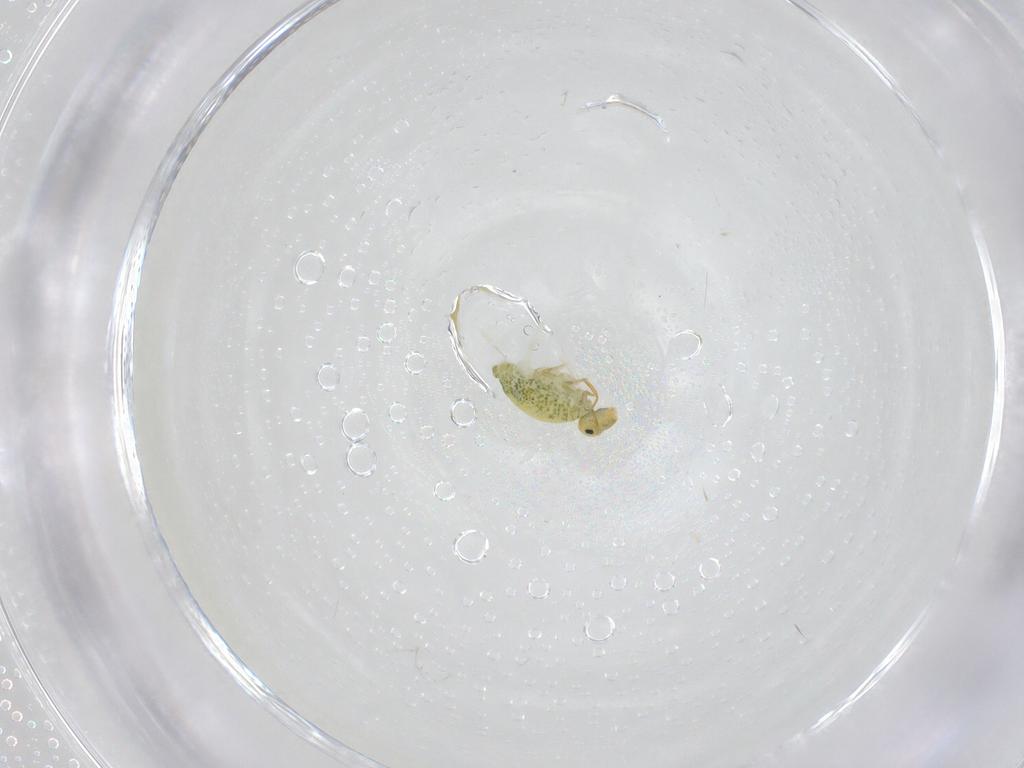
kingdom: Animalia
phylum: Arthropoda
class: Collembola
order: Symphypleona
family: Katiannidae
